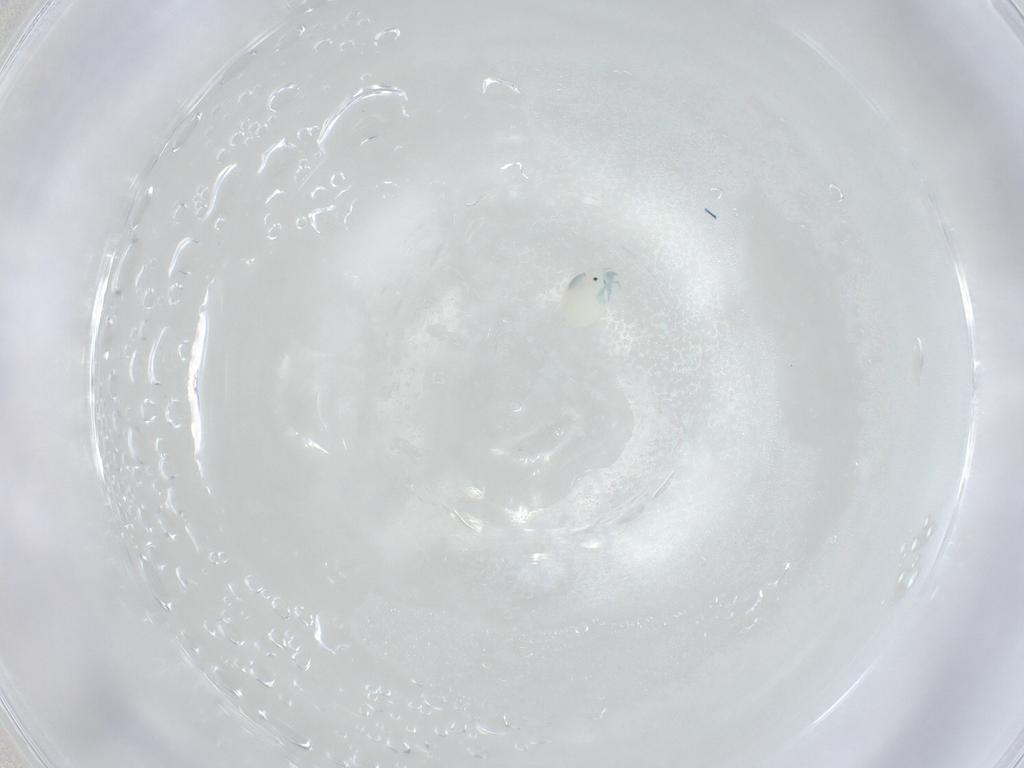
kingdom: Animalia
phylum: Arthropoda
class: Arachnida
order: Trombidiformes
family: Arrenuridae
